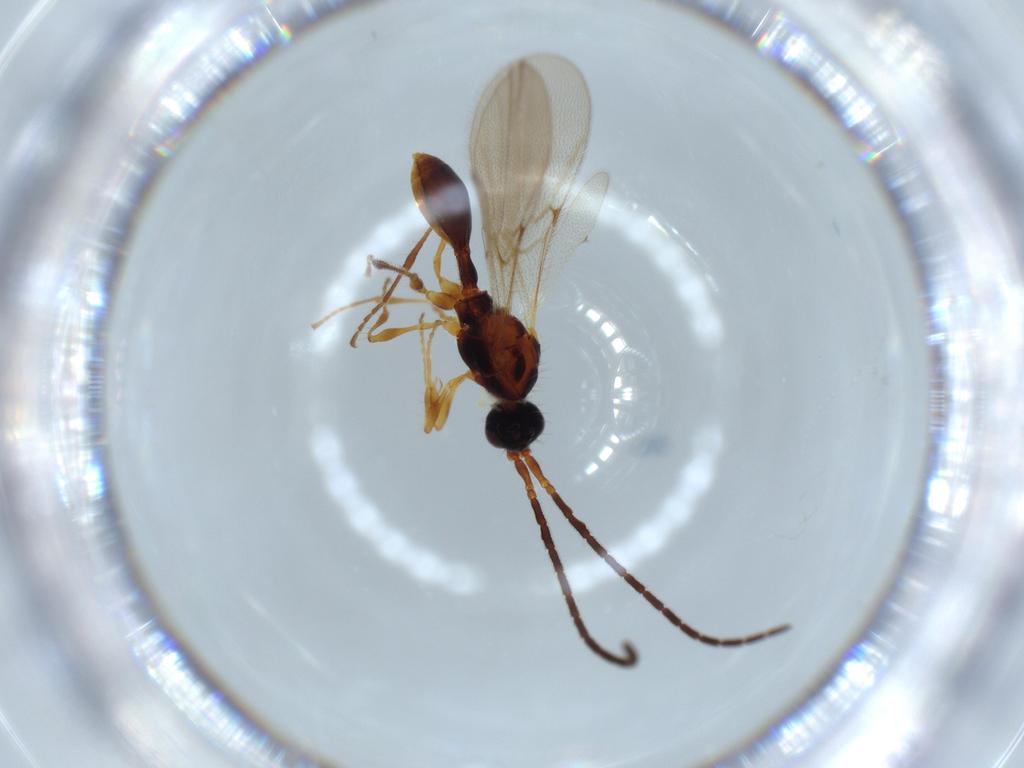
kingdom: Animalia
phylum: Arthropoda
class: Insecta
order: Hymenoptera
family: Diapriidae
